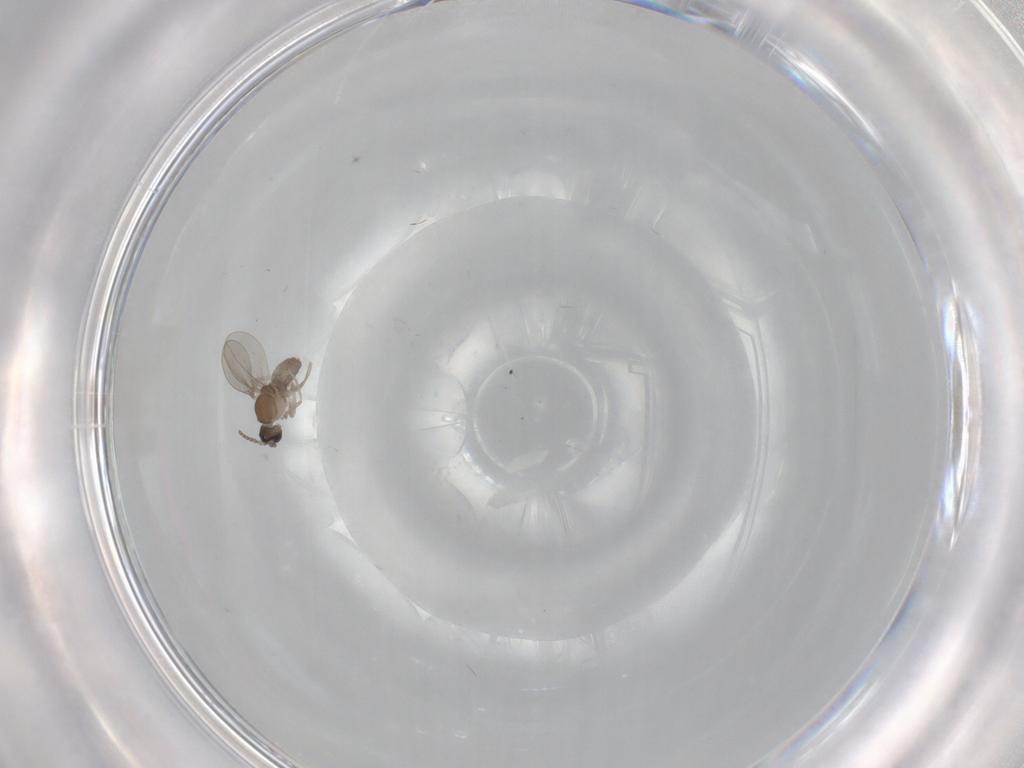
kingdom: Animalia
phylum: Arthropoda
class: Insecta
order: Diptera
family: Cecidomyiidae
